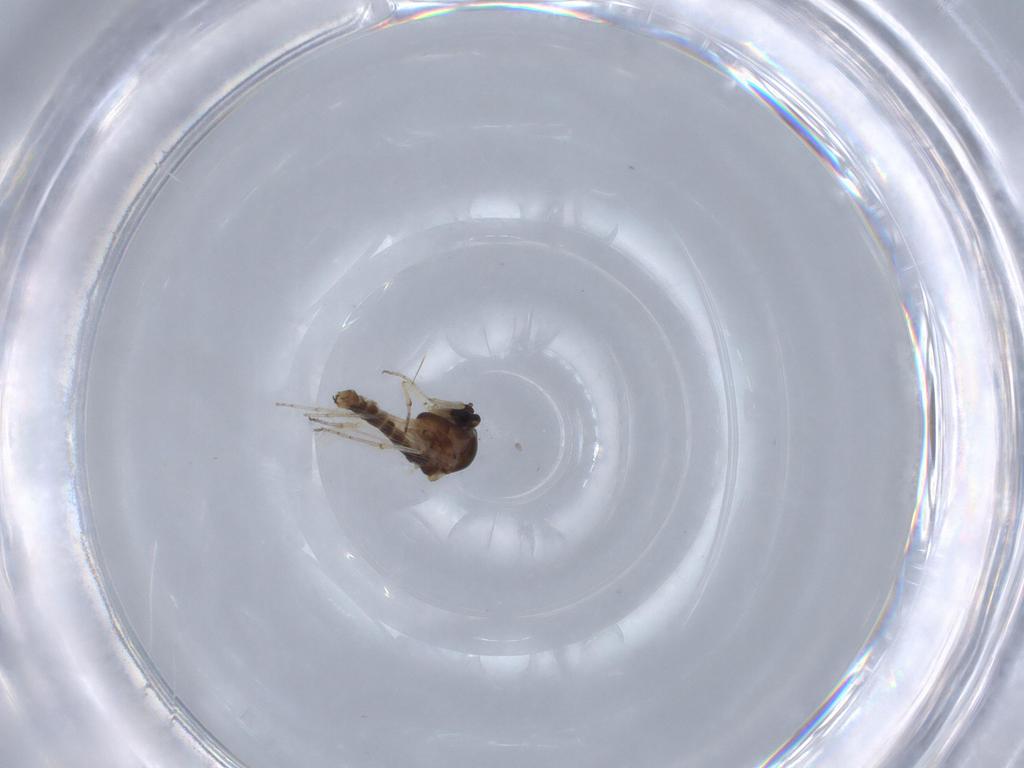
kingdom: Animalia
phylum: Arthropoda
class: Insecta
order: Diptera
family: Ceratopogonidae
